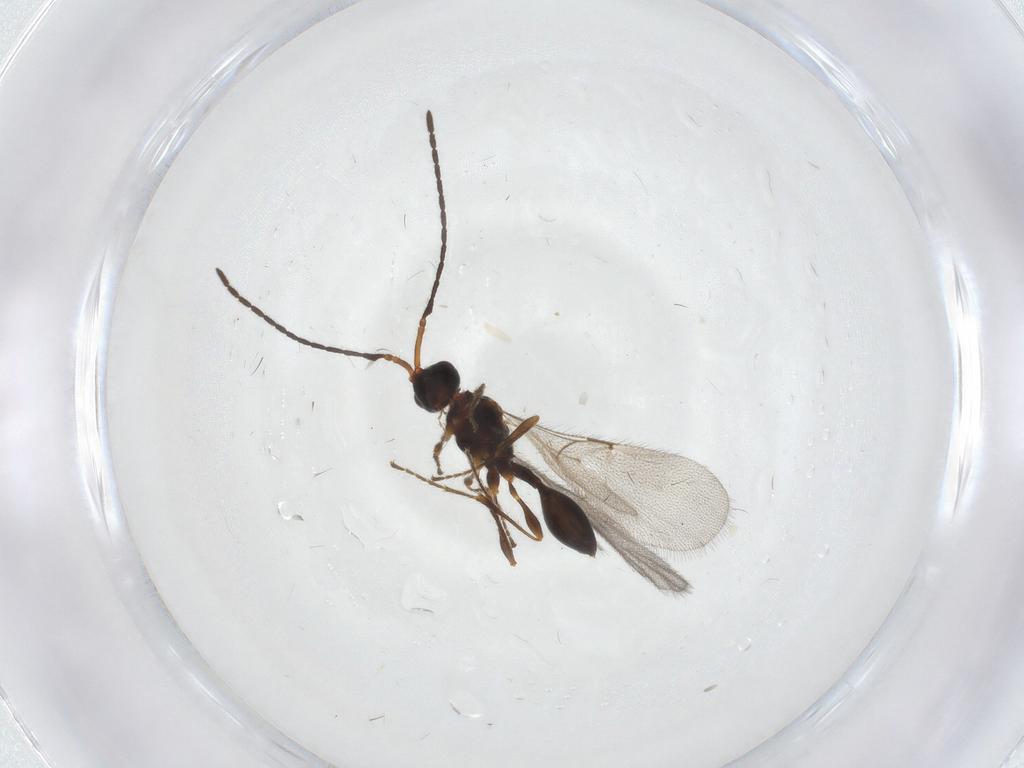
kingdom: Animalia
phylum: Arthropoda
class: Insecta
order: Hymenoptera
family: Diapriidae
